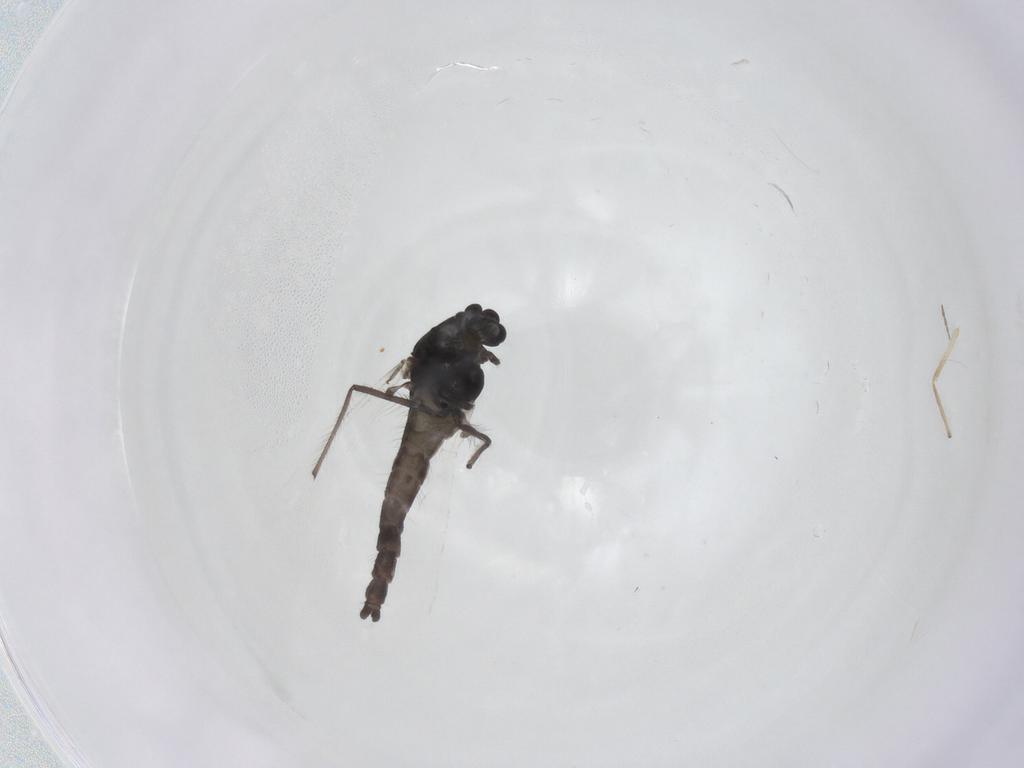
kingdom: Animalia
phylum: Arthropoda
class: Insecta
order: Diptera
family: Chironomidae
